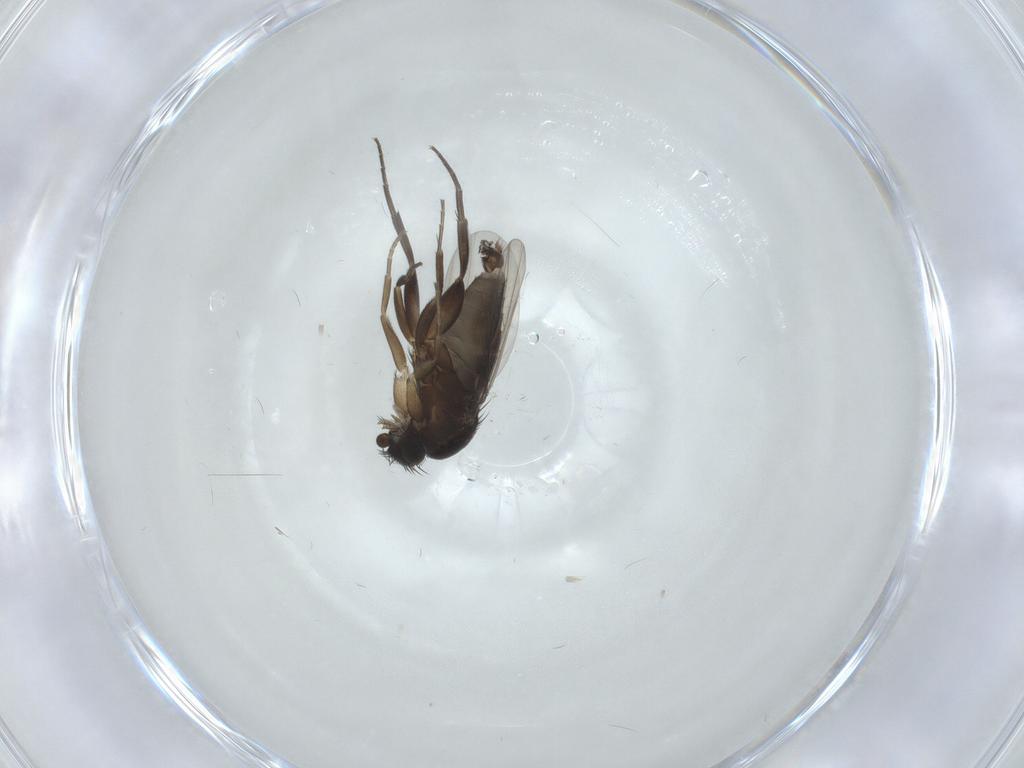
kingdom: Animalia
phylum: Arthropoda
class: Insecta
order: Diptera
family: Phoridae
